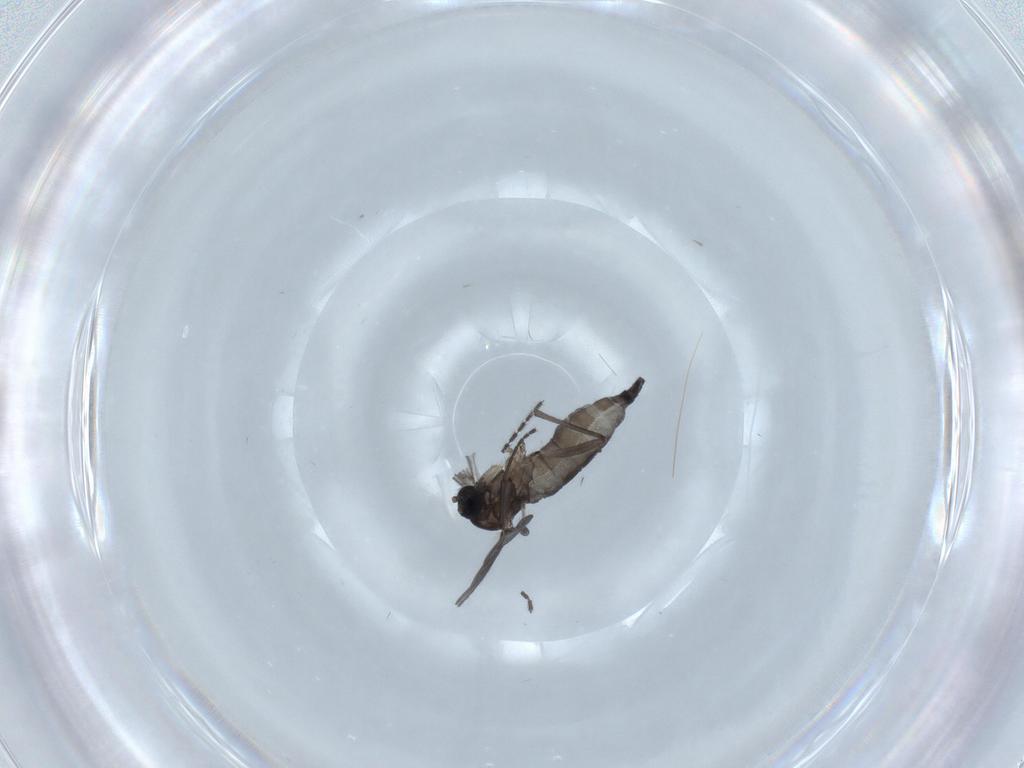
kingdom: Animalia
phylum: Arthropoda
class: Insecta
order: Diptera
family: Sciaridae
